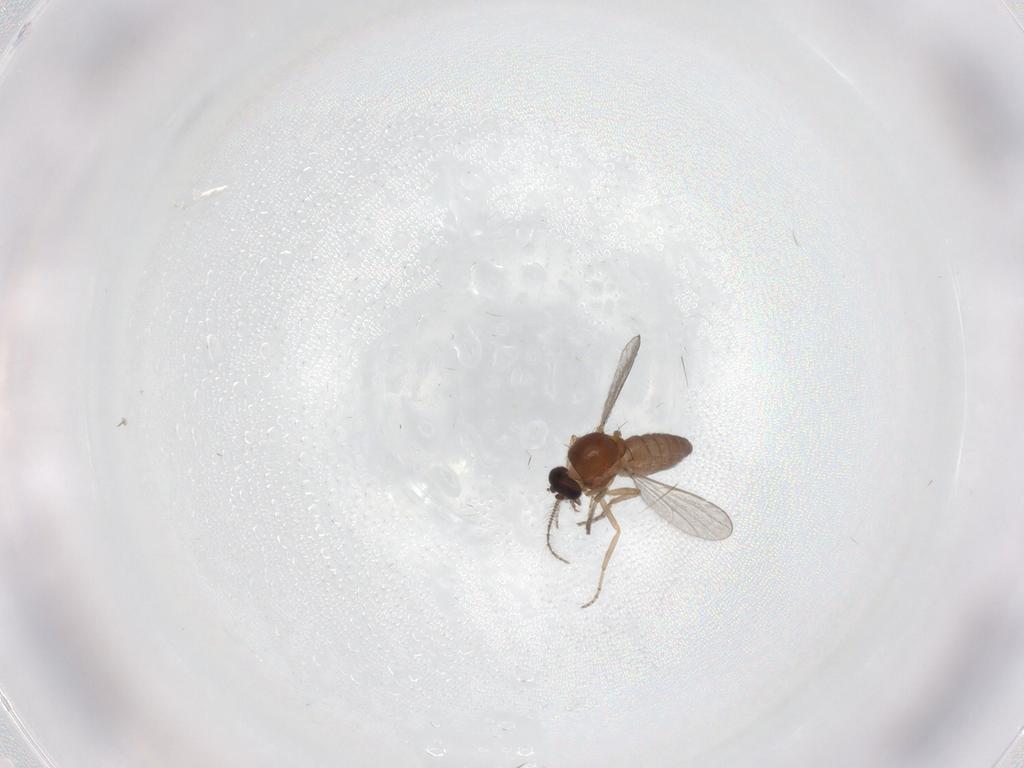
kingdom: Animalia
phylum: Arthropoda
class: Insecta
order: Diptera
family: Ceratopogonidae
